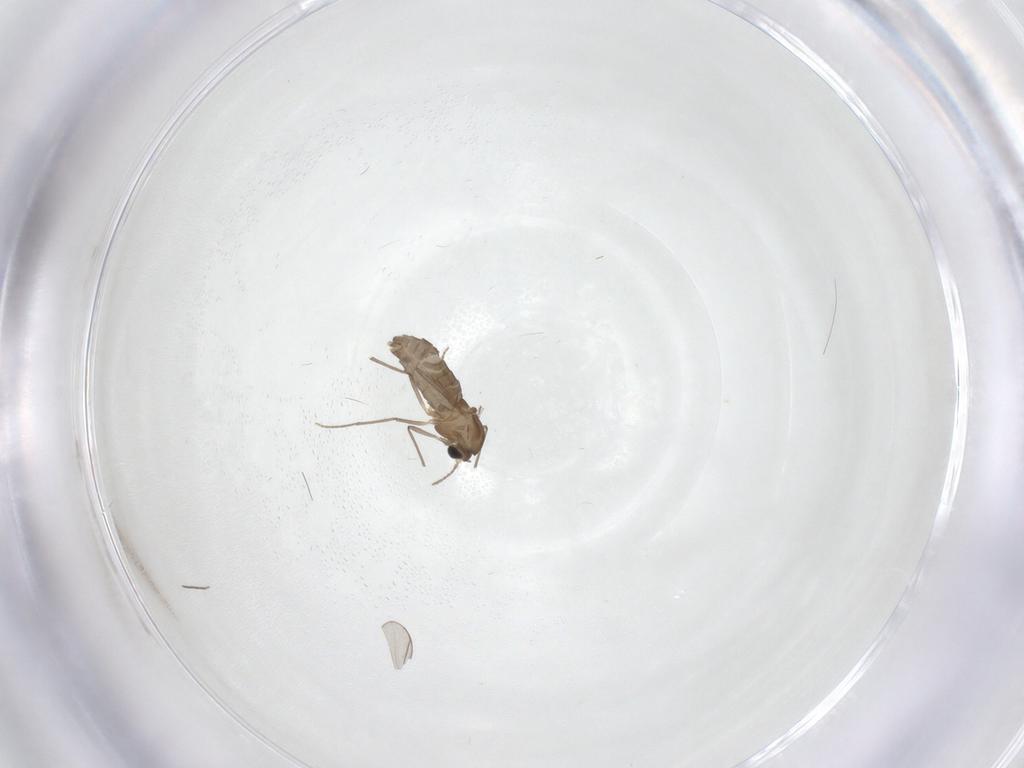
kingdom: Animalia
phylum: Arthropoda
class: Insecta
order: Diptera
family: Chironomidae
